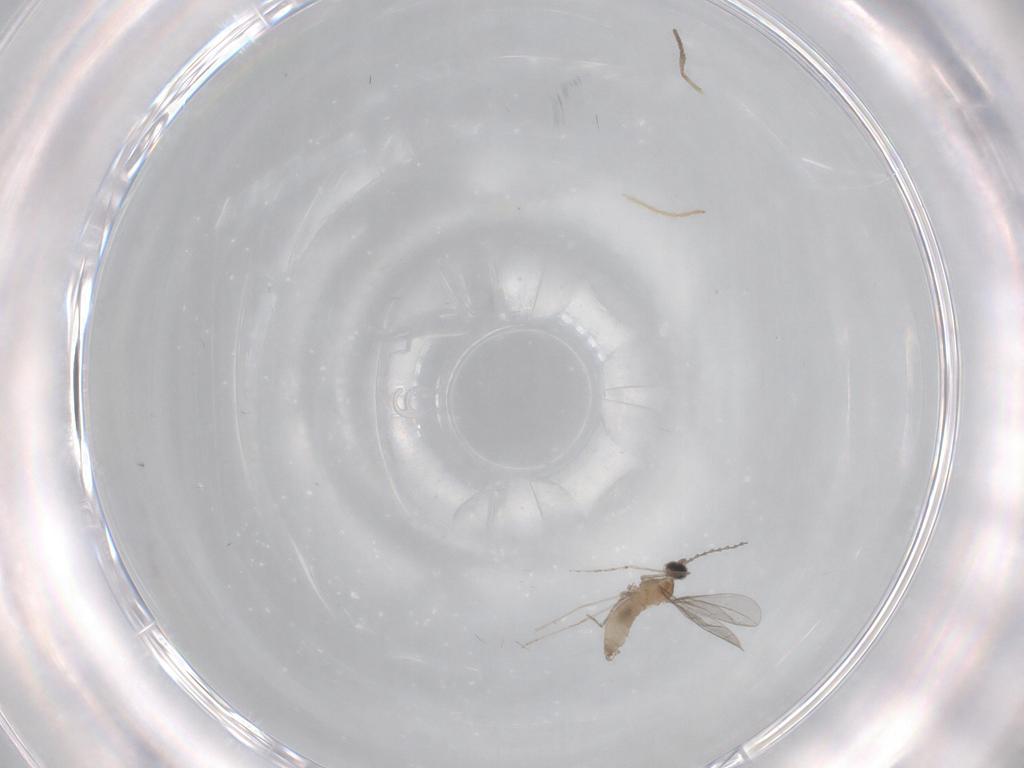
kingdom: Animalia
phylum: Arthropoda
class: Insecta
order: Diptera
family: Cecidomyiidae
